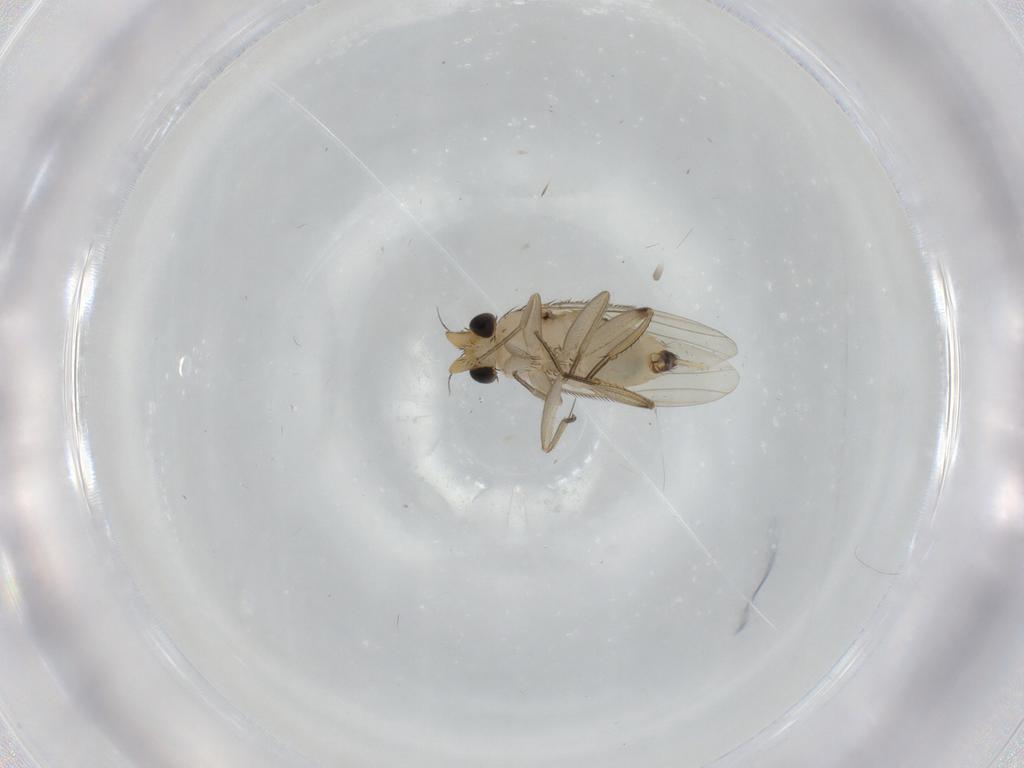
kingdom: Animalia
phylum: Arthropoda
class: Insecta
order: Diptera
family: Phoridae
